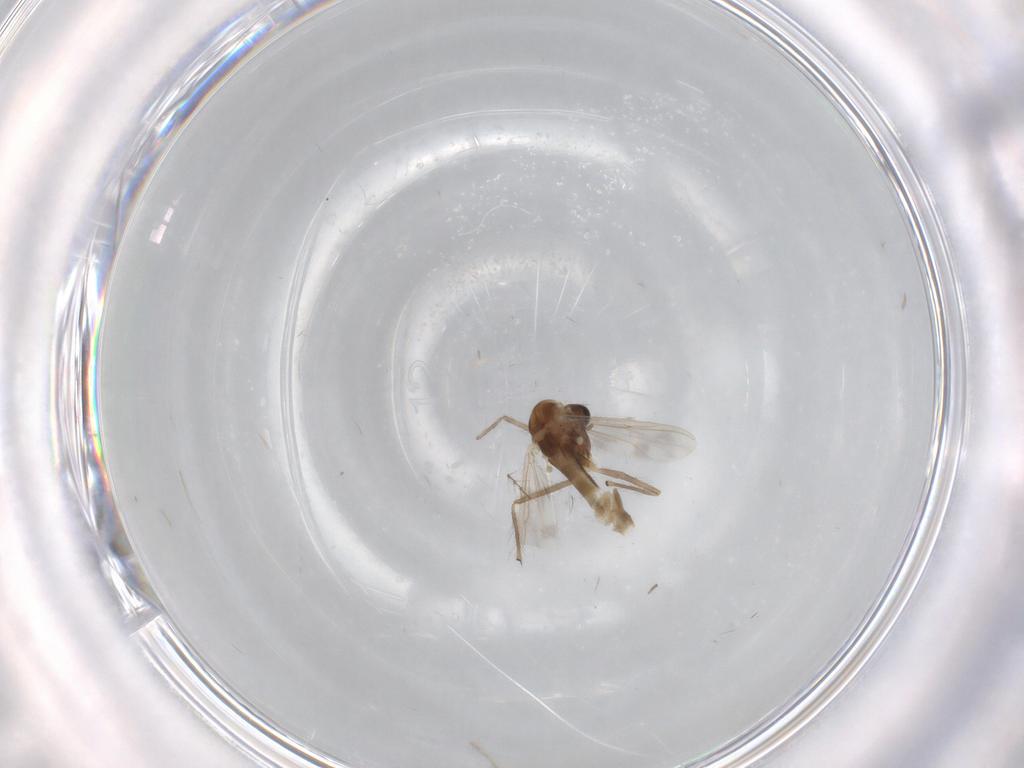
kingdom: Animalia
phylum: Arthropoda
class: Insecta
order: Diptera
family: Chironomidae
